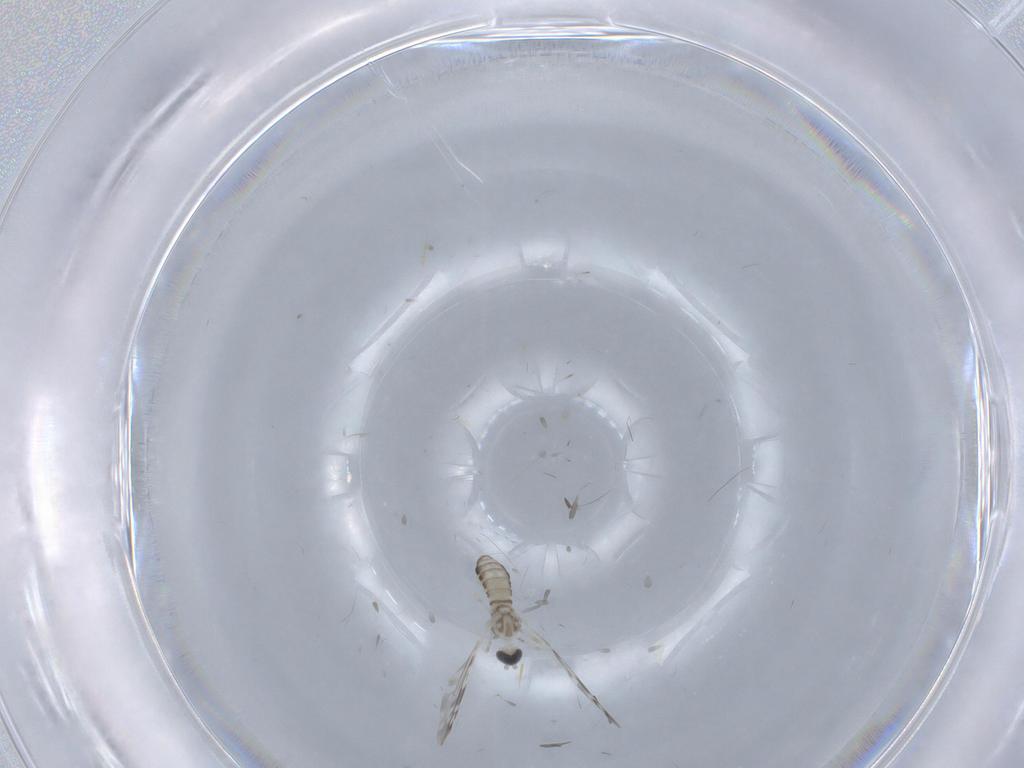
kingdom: Animalia
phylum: Arthropoda
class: Insecta
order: Diptera
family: Cecidomyiidae
